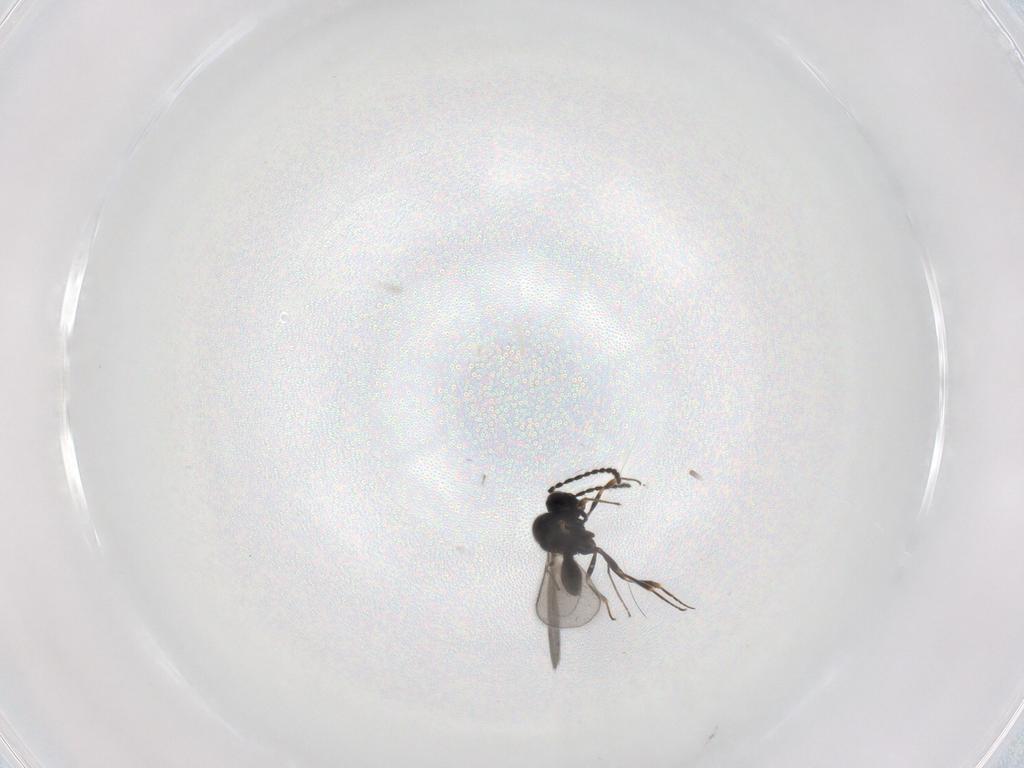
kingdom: Animalia
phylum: Arthropoda
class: Insecta
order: Hymenoptera
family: Scelionidae
